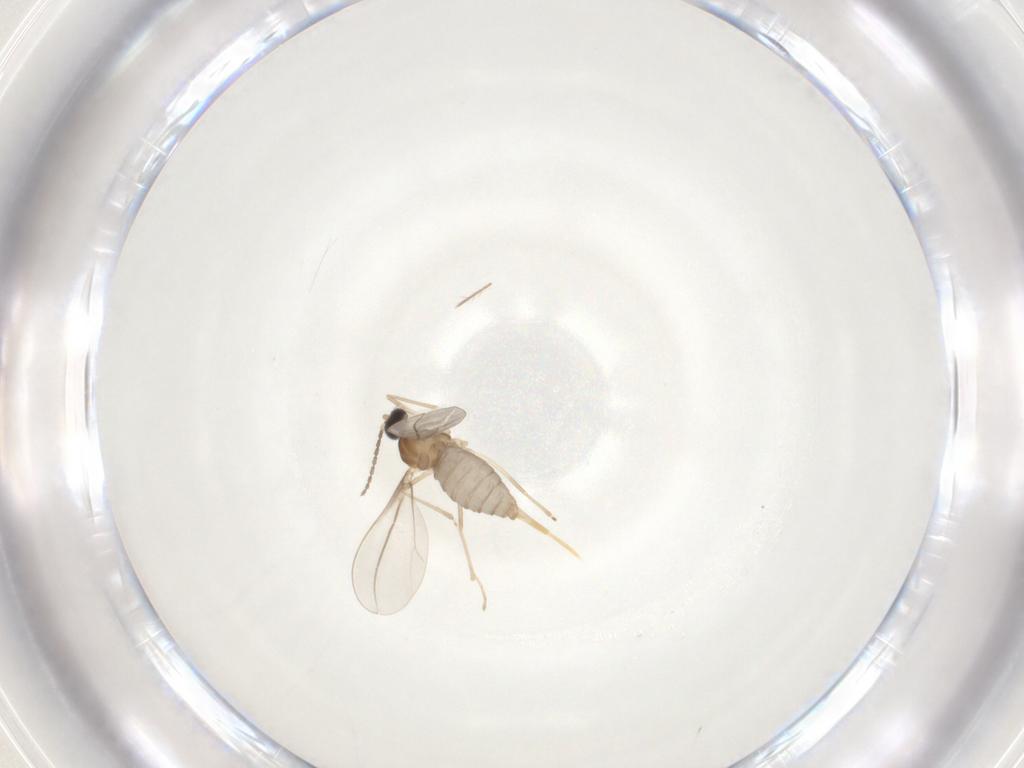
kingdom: Animalia
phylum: Arthropoda
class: Insecta
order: Diptera
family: Cecidomyiidae
